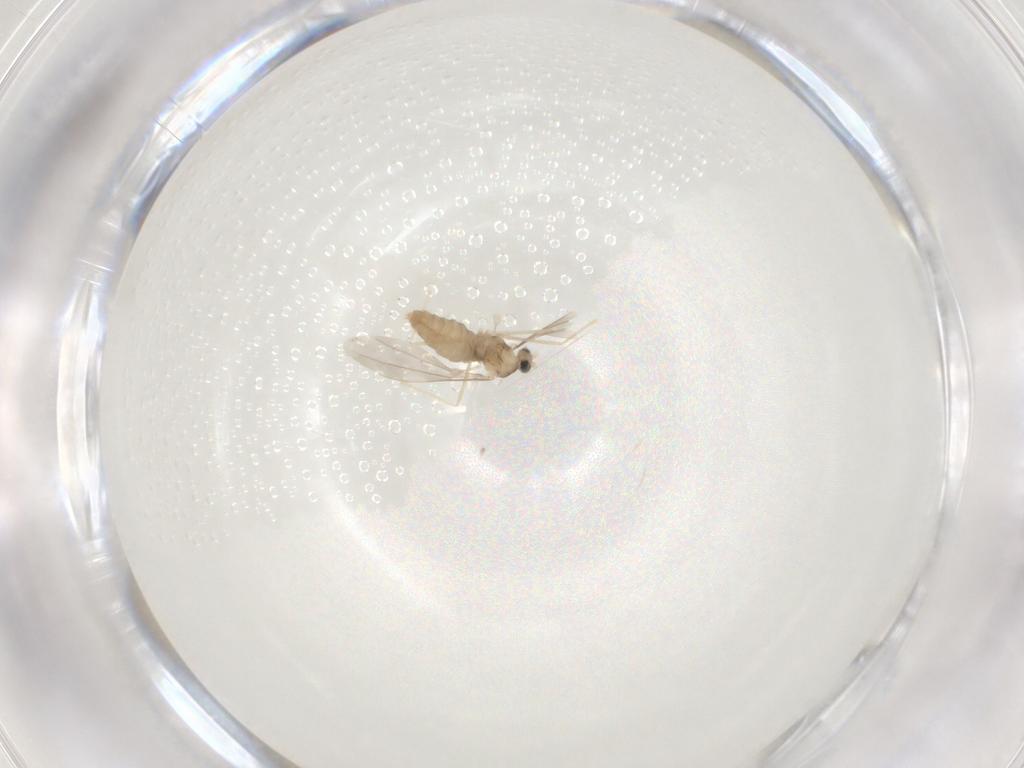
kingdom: Animalia
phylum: Arthropoda
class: Insecta
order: Diptera
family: Cecidomyiidae
